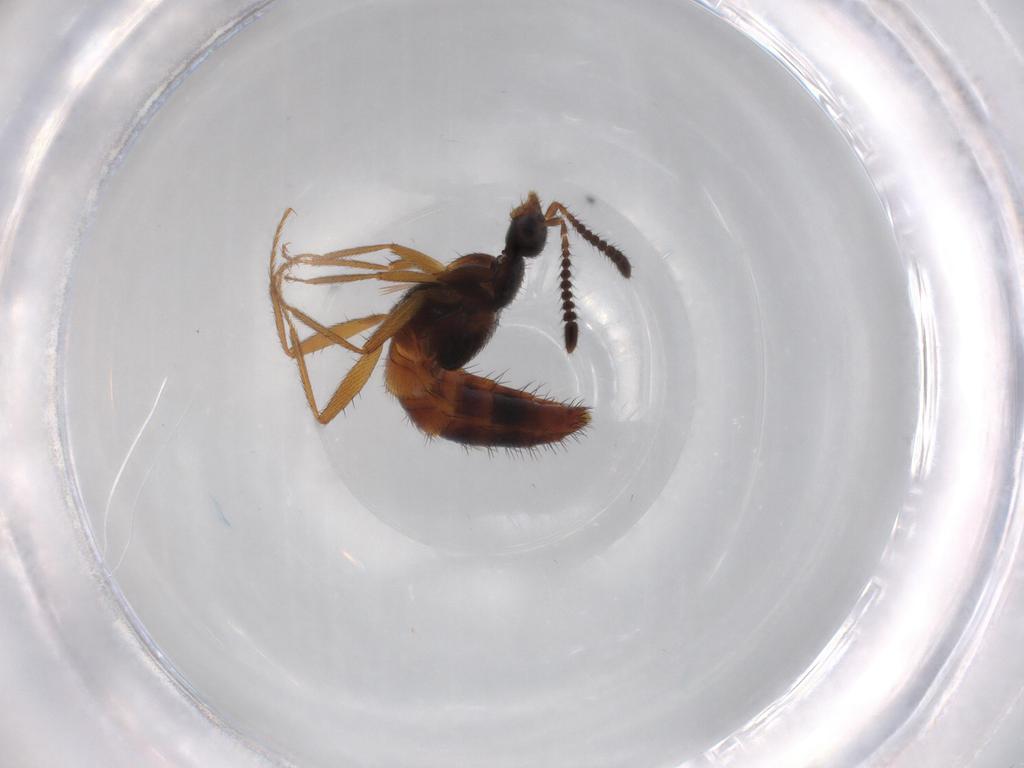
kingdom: Animalia
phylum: Arthropoda
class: Insecta
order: Coleoptera
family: Staphylinidae
